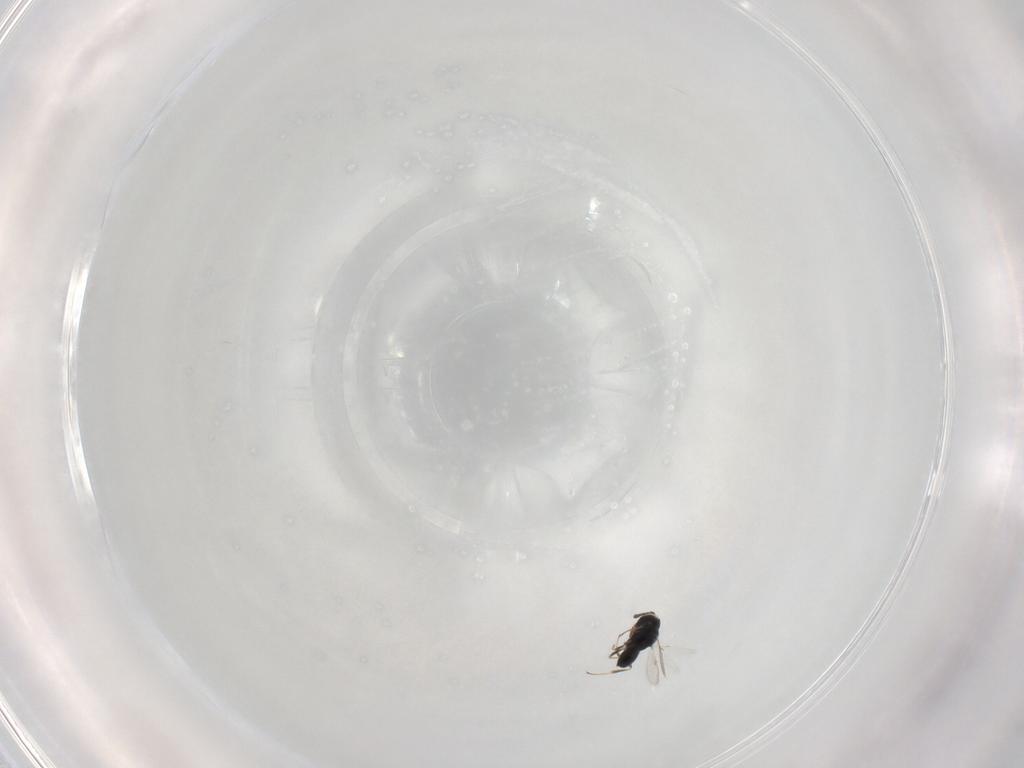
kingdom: Animalia
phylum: Arthropoda
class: Insecta
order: Hymenoptera
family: Scelionidae
